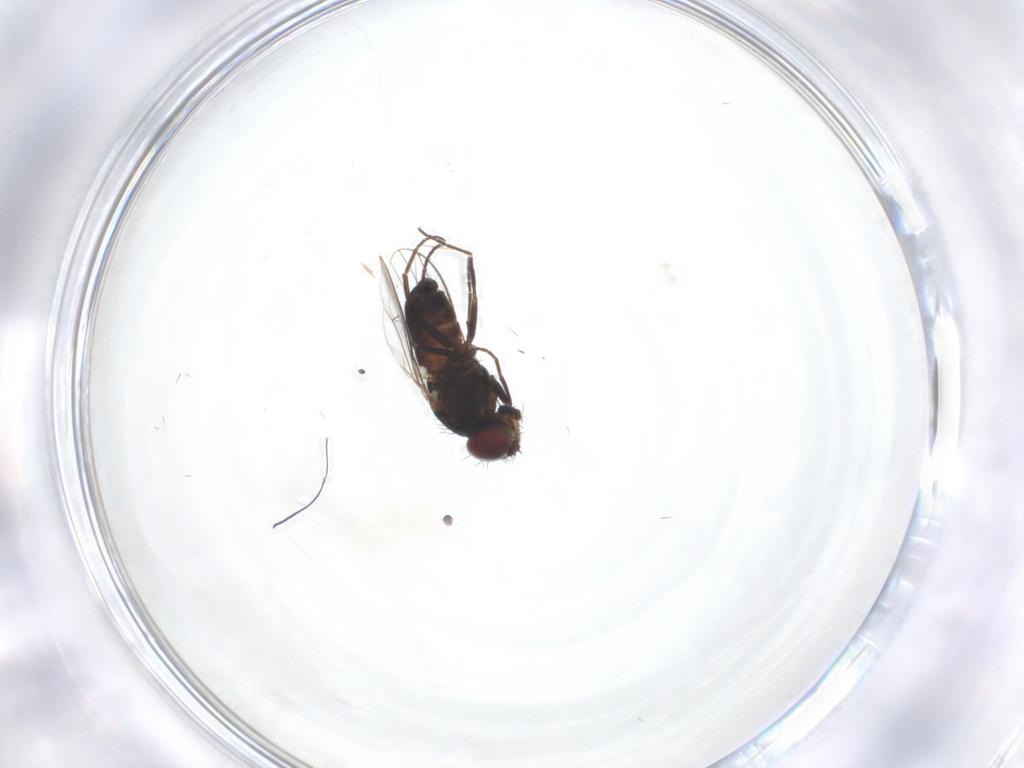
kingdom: Animalia
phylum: Arthropoda
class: Insecta
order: Diptera
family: Carnidae
